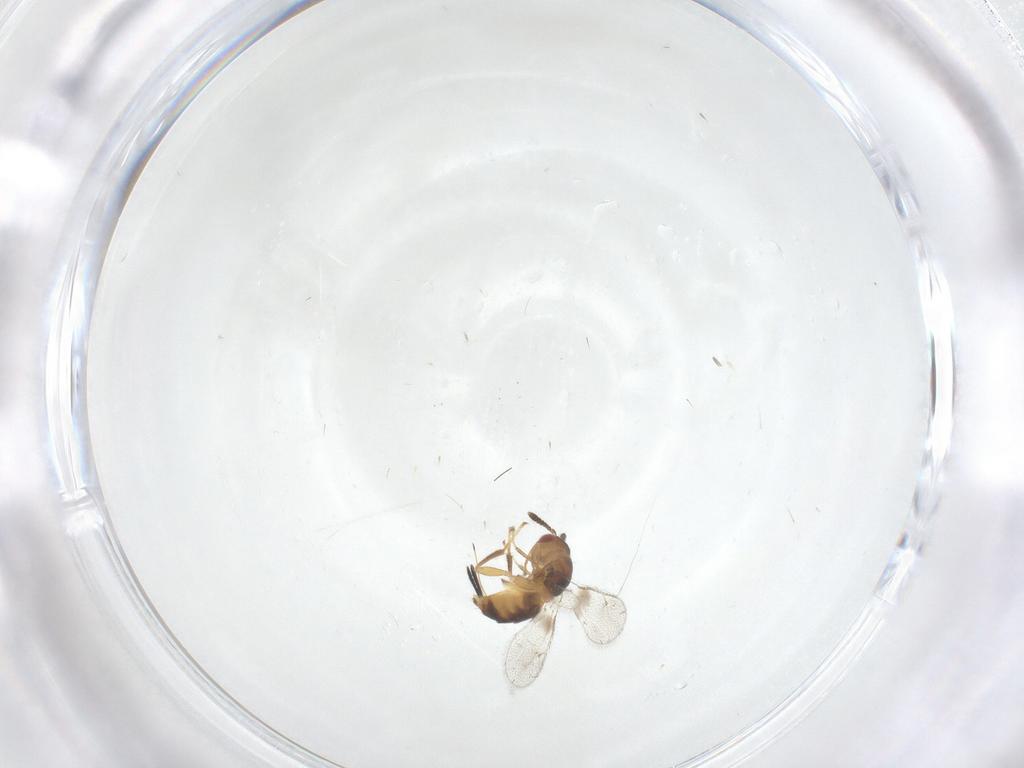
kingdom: Animalia
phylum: Arthropoda
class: Insecta
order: Hymenoptera
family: Torymidae
